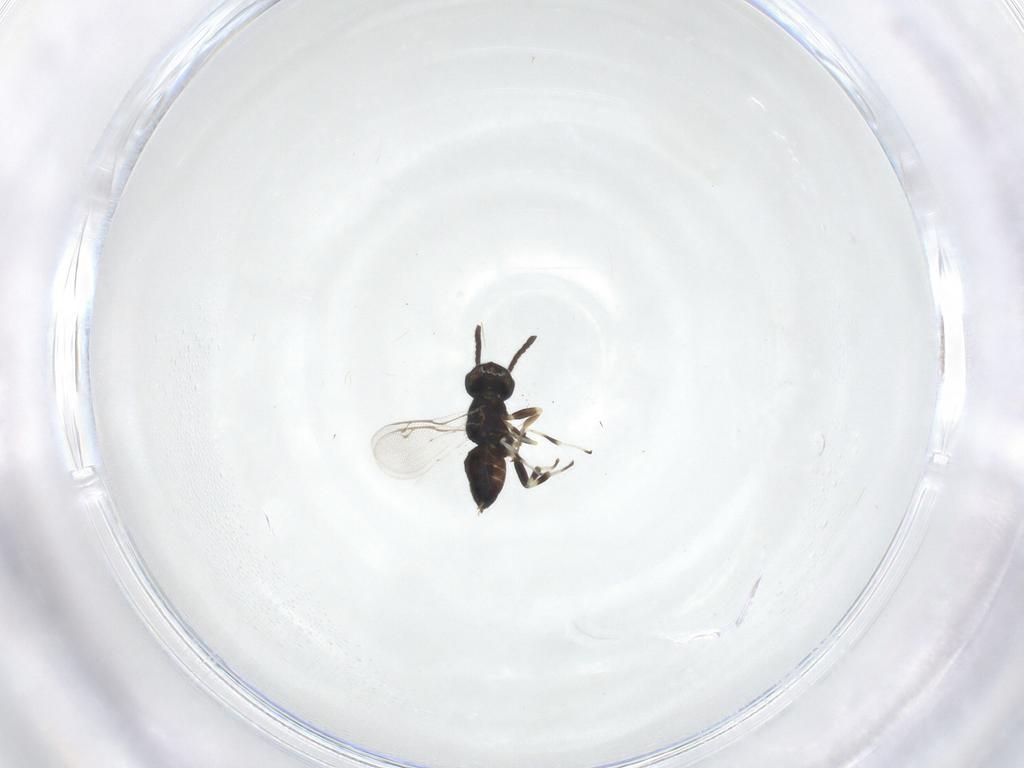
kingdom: Animalia
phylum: Arthropoda
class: Insecta
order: Hymenoptera
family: Eupelmidae
